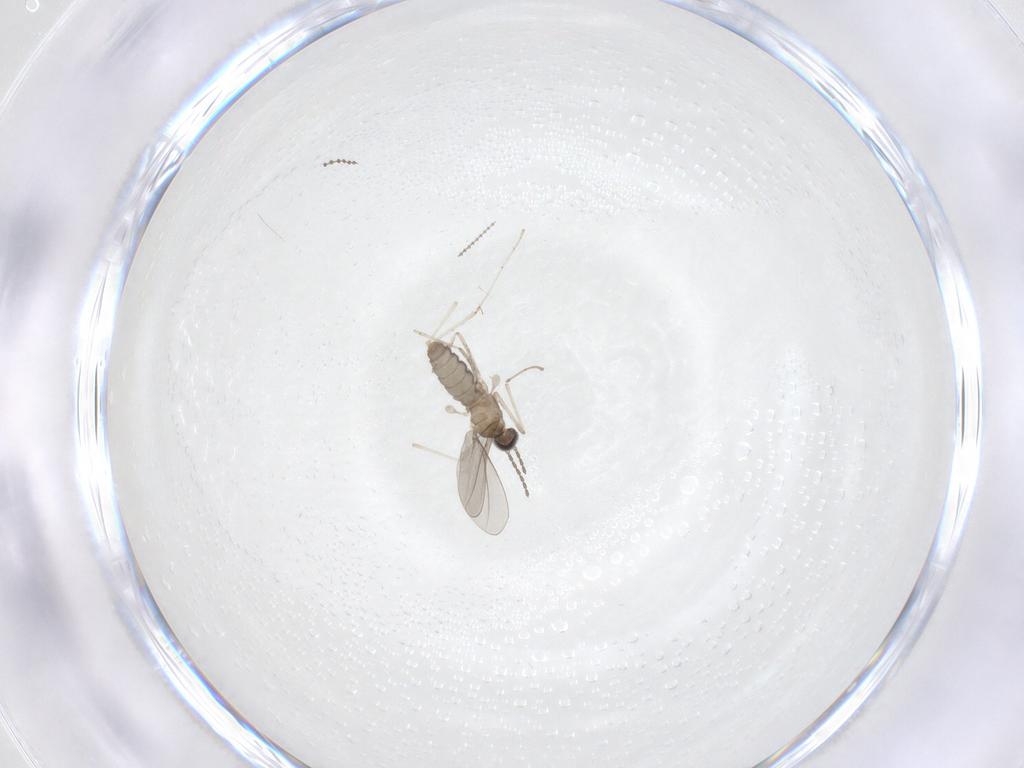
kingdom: Animalia
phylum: Arthropoda
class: Insecta
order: Diptera
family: Cecidomyiidae
